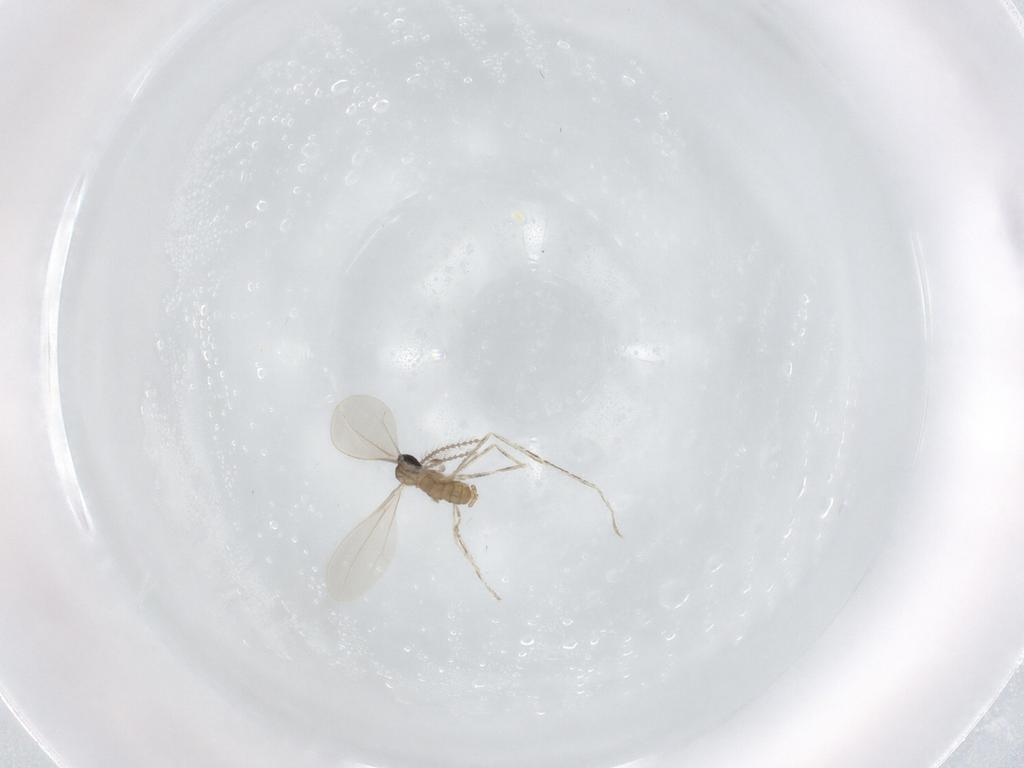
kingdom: Animalia
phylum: Arthropoda
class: Insecta
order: Diptera
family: Cecidomyiidae
